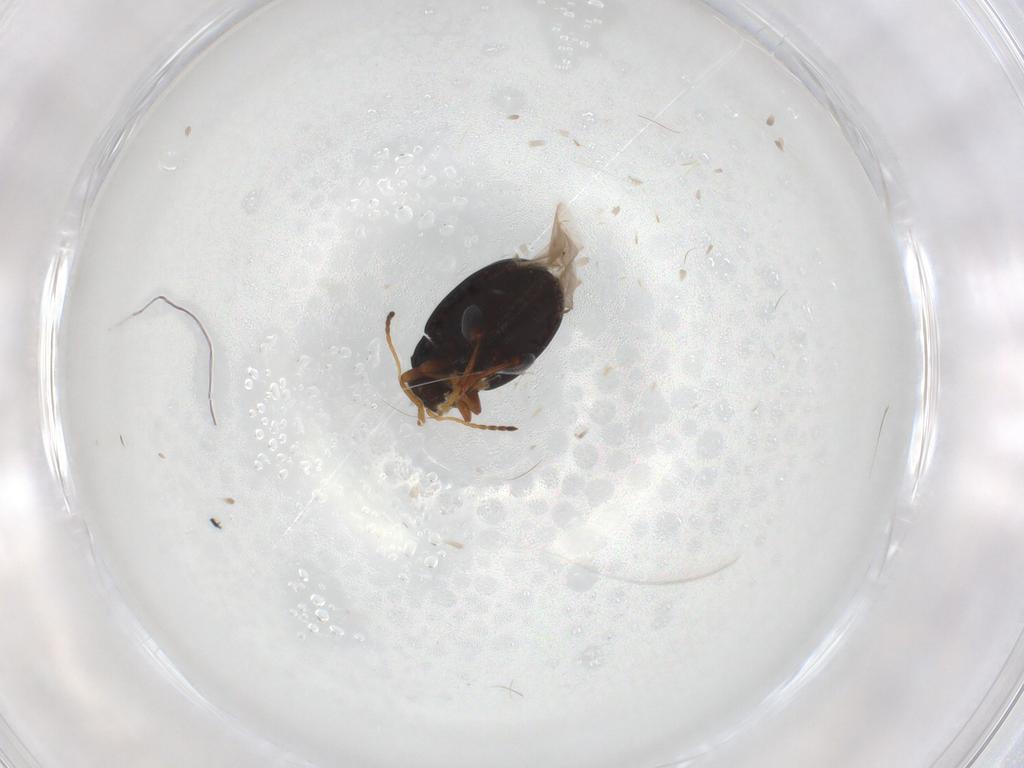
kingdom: Animalia
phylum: Arthropoda
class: Insecta
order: Coleoptera
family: Chrysomelidae
